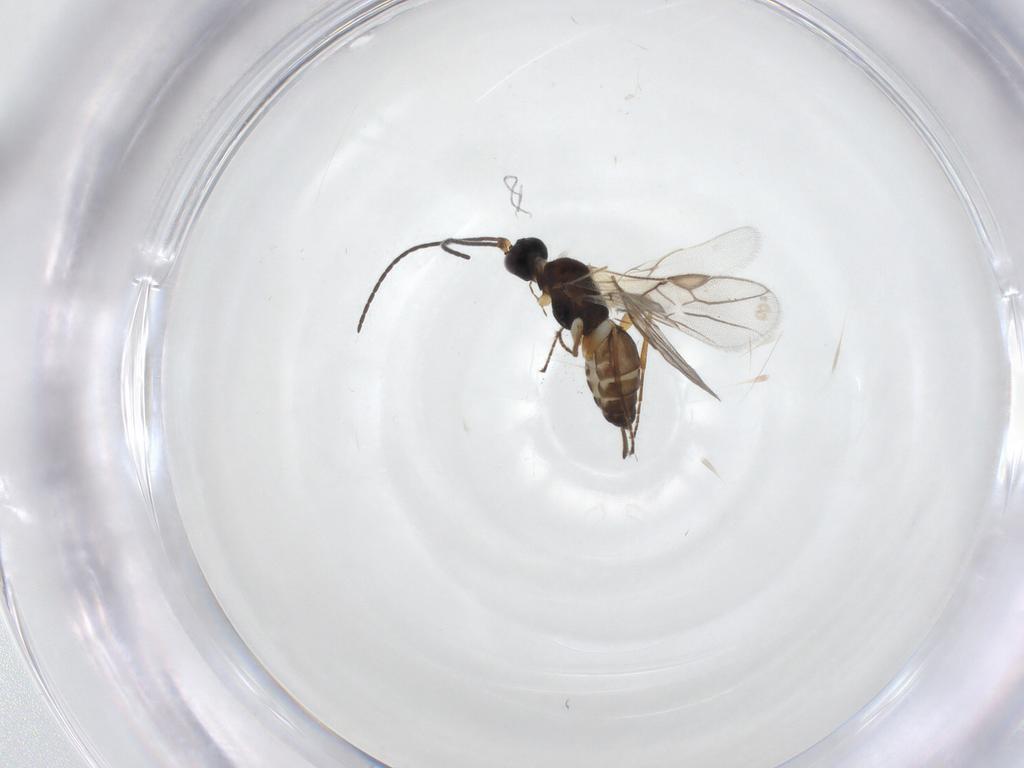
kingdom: Animalia
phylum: Arthropoda
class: Insecta
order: Hymenoptera
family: Braconidae
